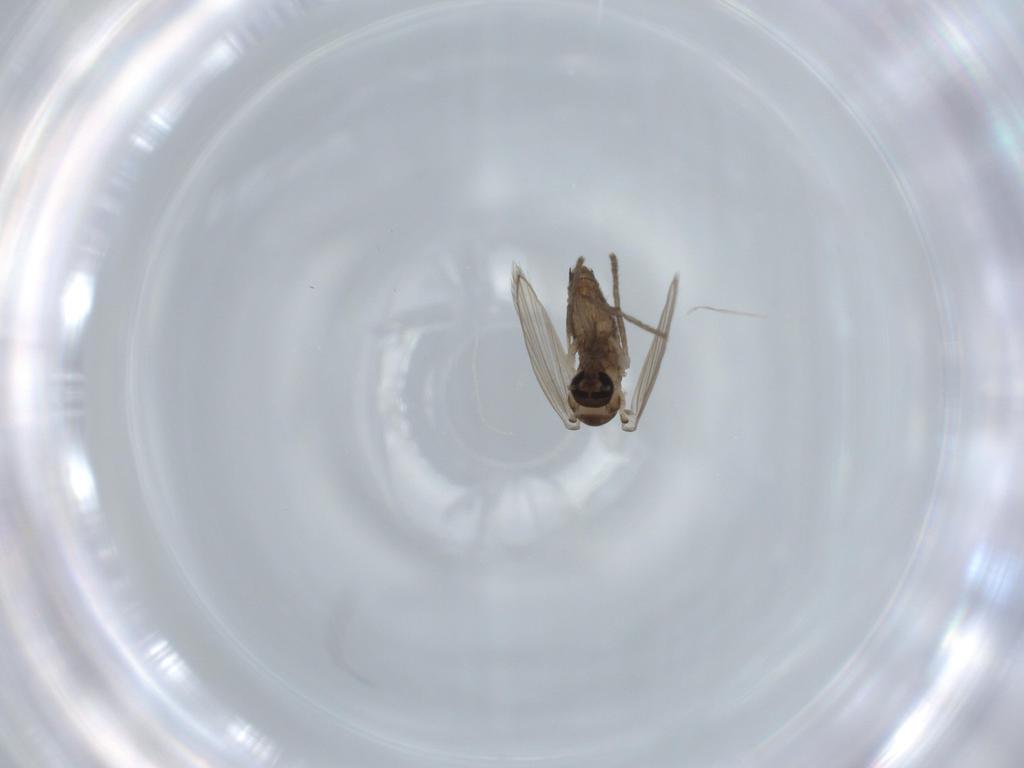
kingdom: Animalia
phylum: Arthropoda
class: Insecta
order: Diptera
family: Psychodidae
